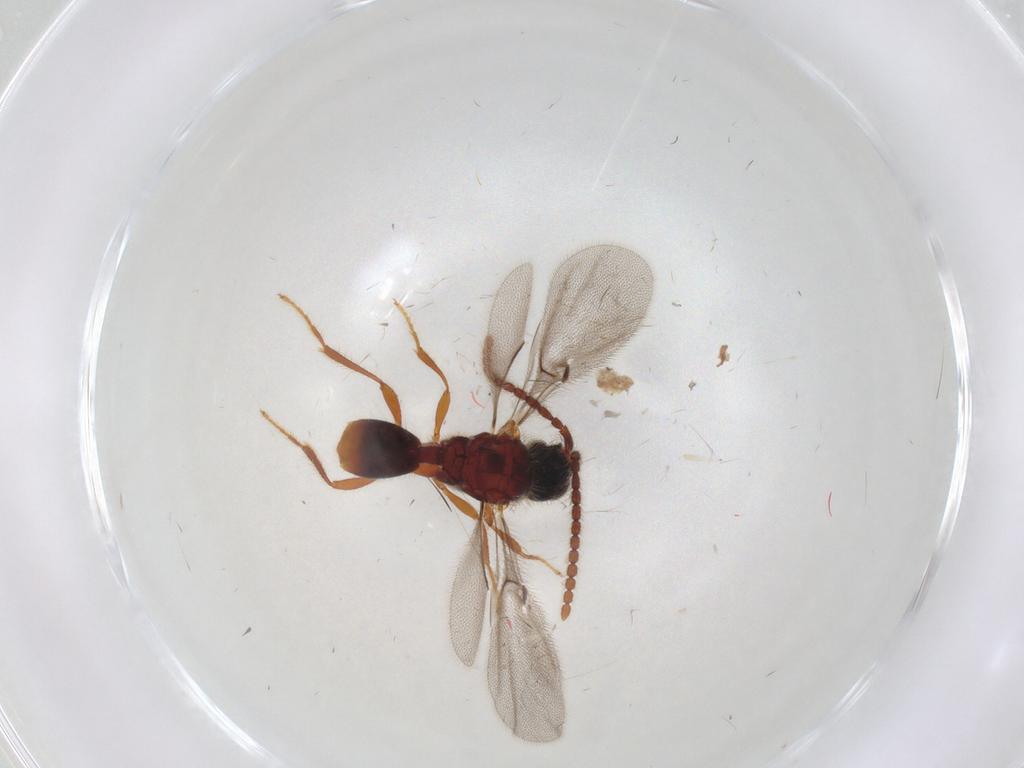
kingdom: Animalia
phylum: Arthropoda
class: Insecta
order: Hymenoptera
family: Diapriidae
